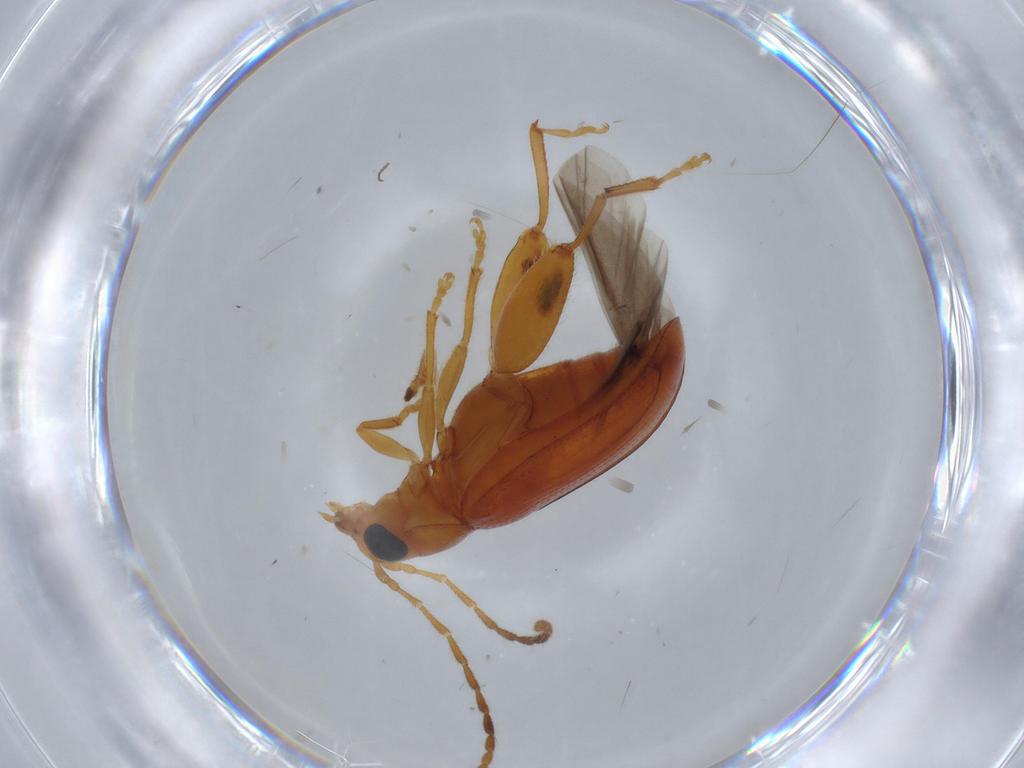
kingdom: Animalia
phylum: Arthropoda
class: Insecta
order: Coleoptera
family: Chrysomelidae
